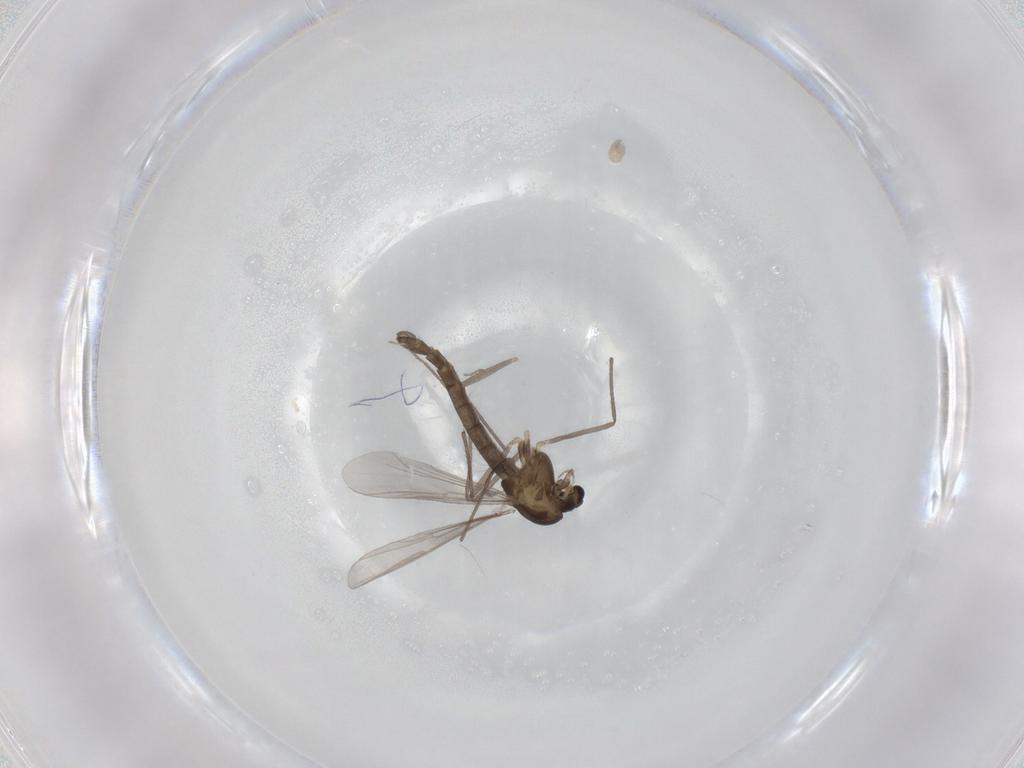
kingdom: Animalia
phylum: Arthropoda
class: Insecta
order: Diptera
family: Chironomidae
